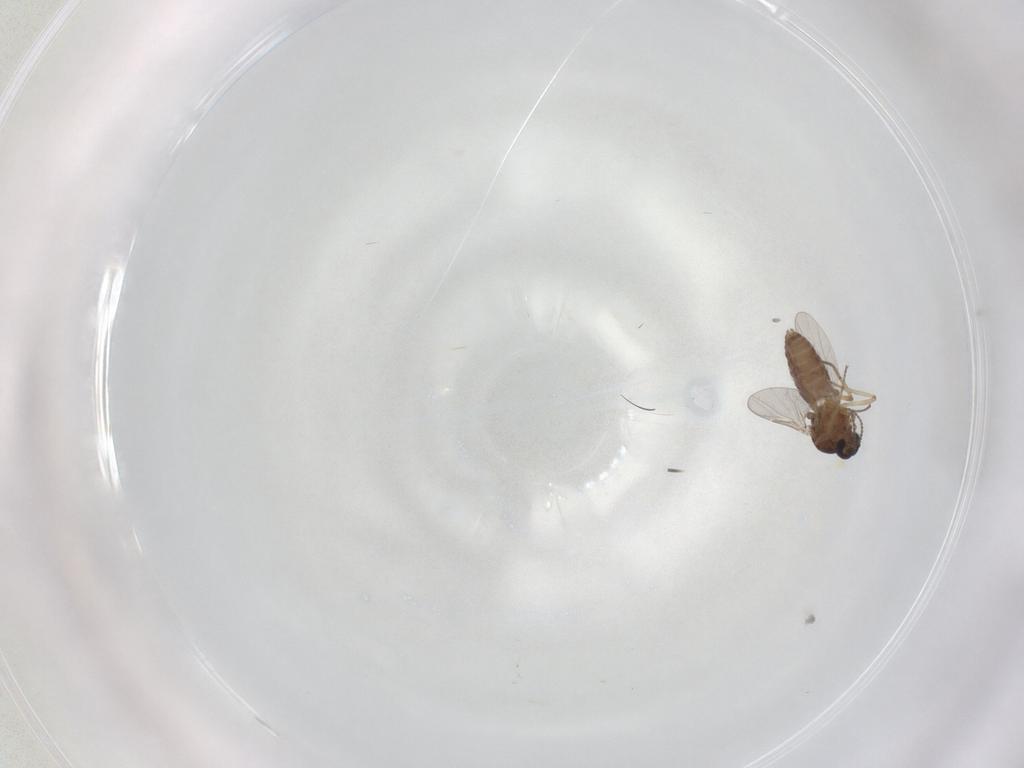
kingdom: Animalia
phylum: Arthropoda
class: Insecta
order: Diptera
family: Ceratopogonidae
